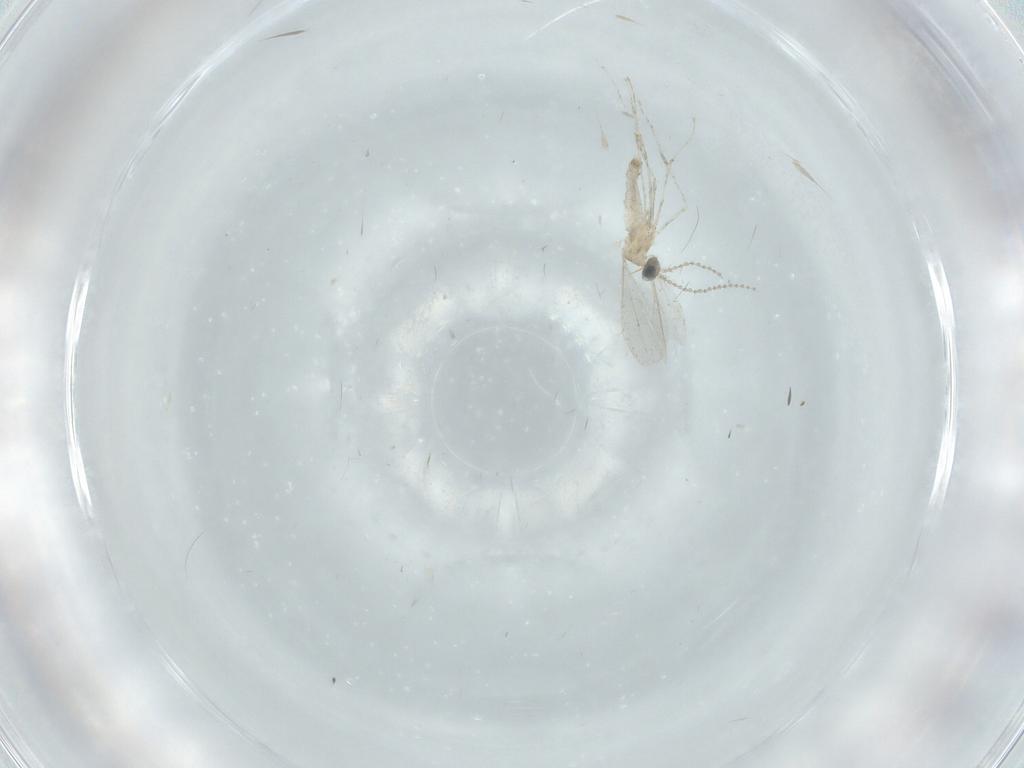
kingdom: Animalia
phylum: Arthropoda
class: Insecta
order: Diptera
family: Cecidomyiidae
